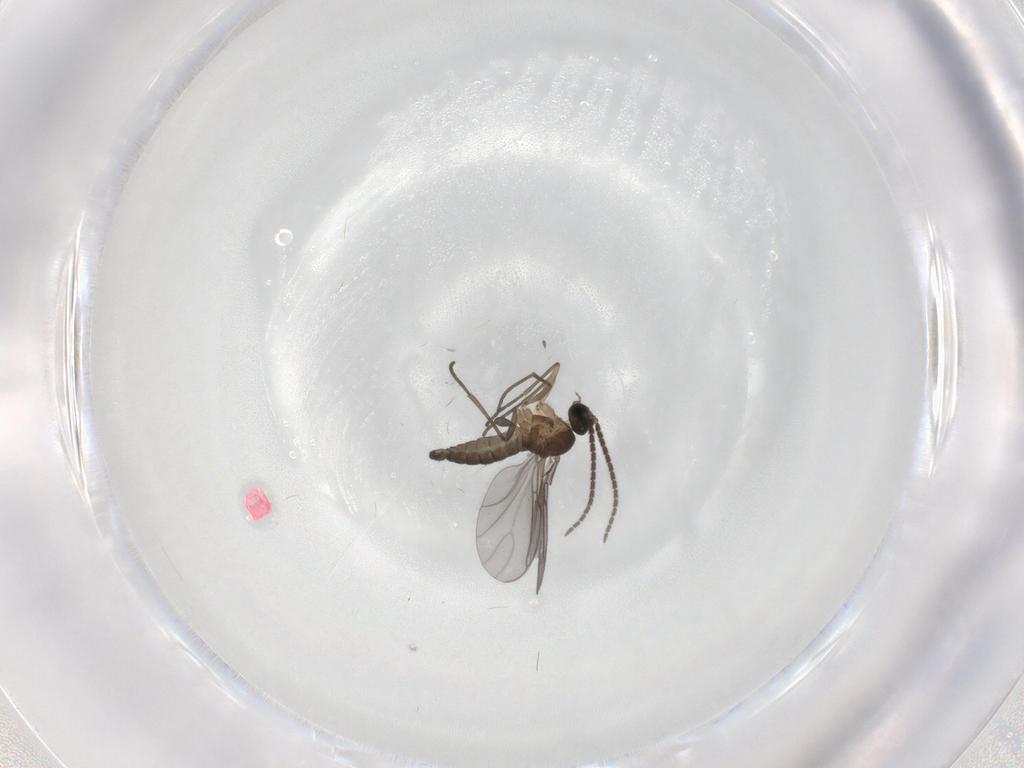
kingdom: Animalia
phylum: Arthropoda
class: Insecta
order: Diptera
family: Sciaridae
